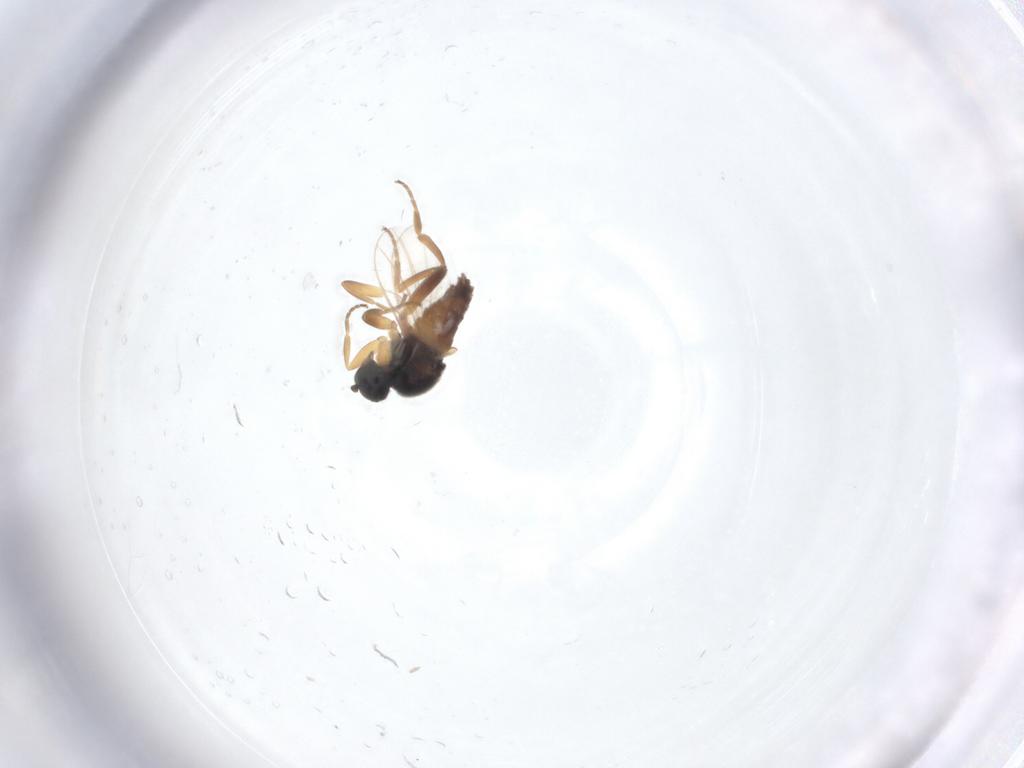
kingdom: Animalia
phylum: Arthropoda
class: Insecta
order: Diptera
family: Hybotidae
